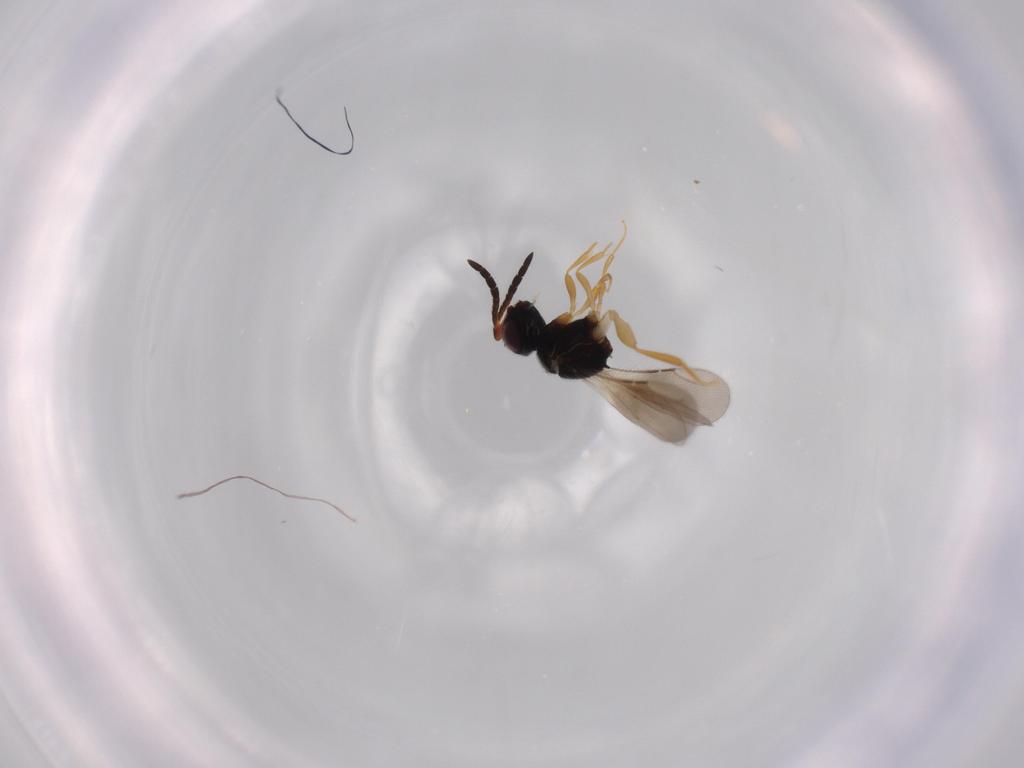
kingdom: Animalia
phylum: Arthropoda
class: Insecta
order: Hymenoptera
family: Ceraphronidae
